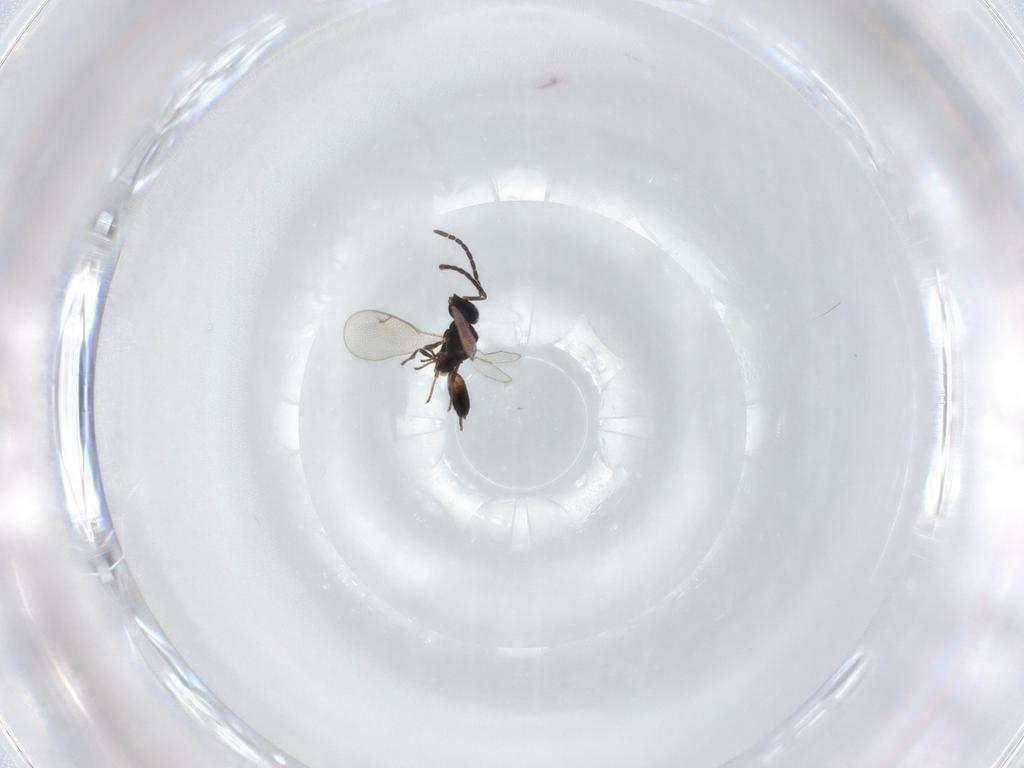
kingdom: Animalia
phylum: Arthropoda
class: Insecta
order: Hymenoptera
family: Pteromalidae
